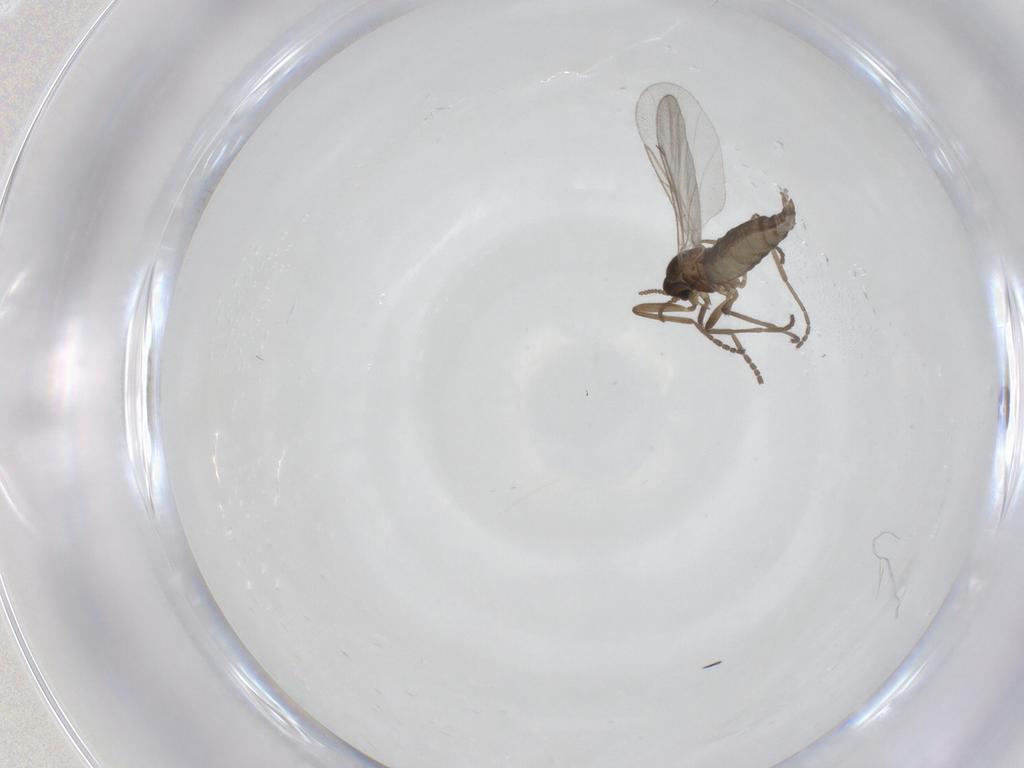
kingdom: Animalia
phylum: Arthropoda
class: Insecta
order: Diptera
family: Cecidomyiidae
